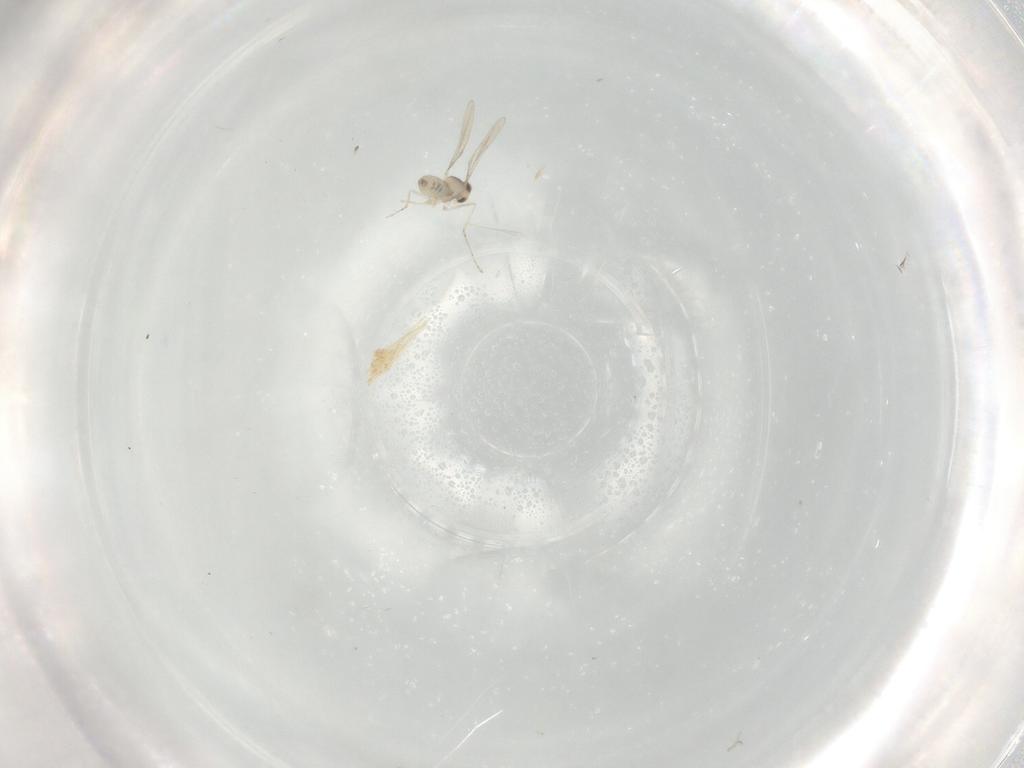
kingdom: Animalia
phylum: Arthropoda
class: Insecta
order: Diptera
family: Cecidomyiidae
